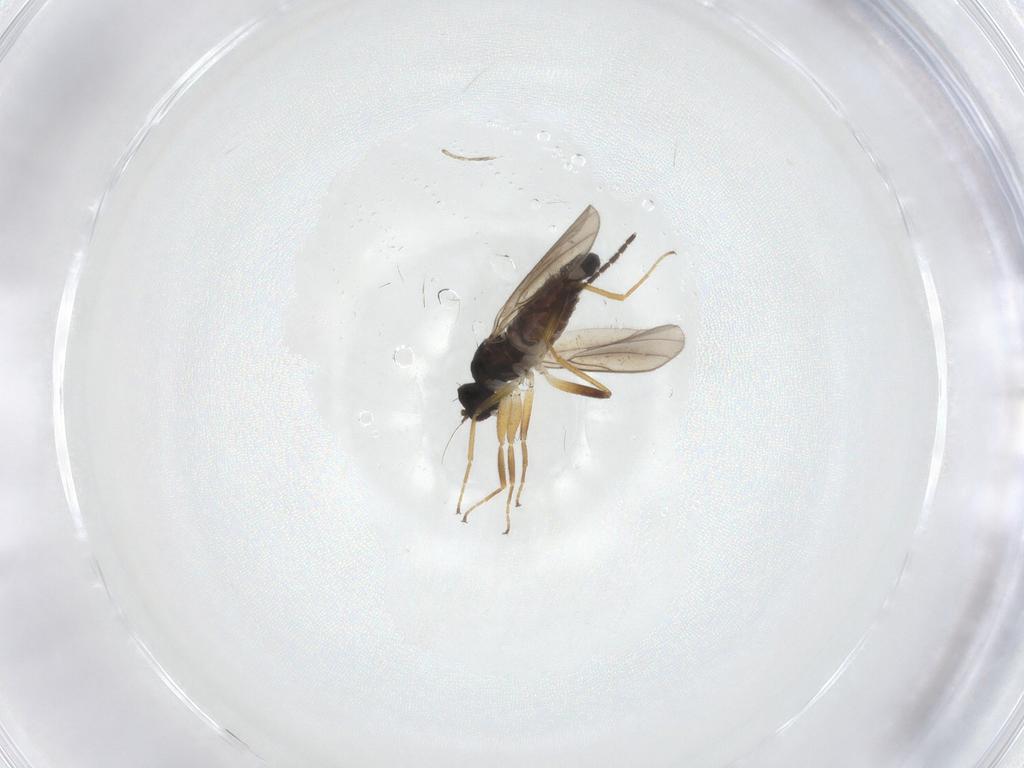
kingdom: Animalia
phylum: Arthropoda
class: Insecta
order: Diptera
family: Hybotidae
